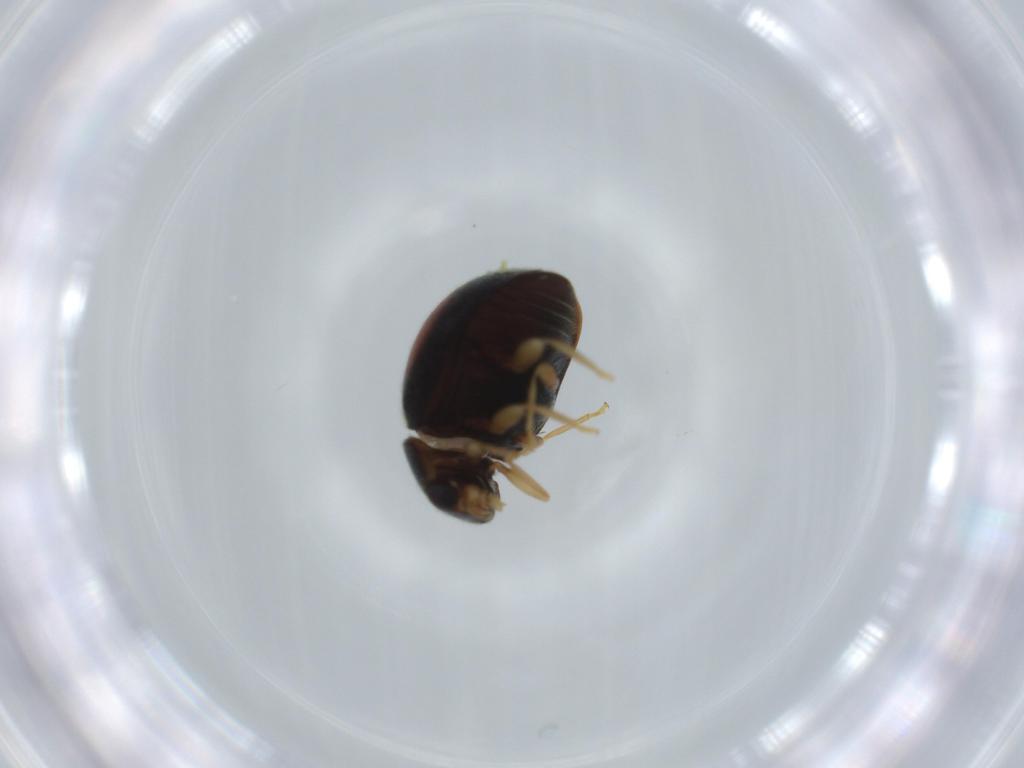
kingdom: Animalia
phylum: Arthropoda
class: Insecta
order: Coleoptera
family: Coccinellidae
